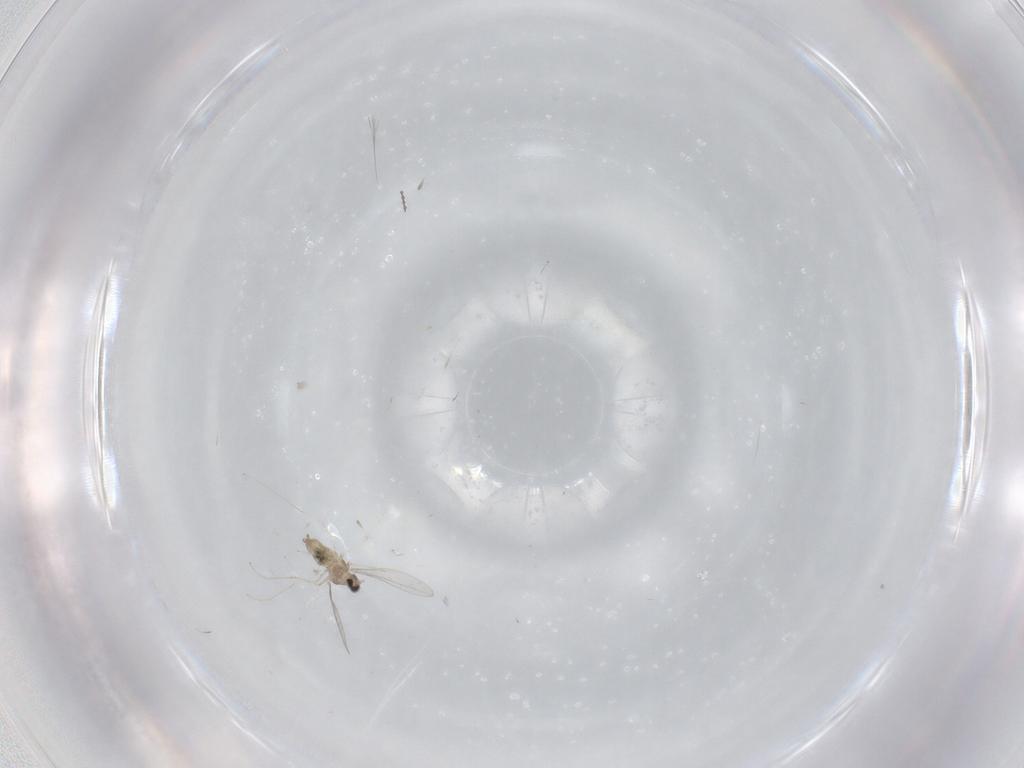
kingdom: Animalia
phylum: Arthropoda
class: Insecta
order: Diptera
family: Cecidomyiidae
